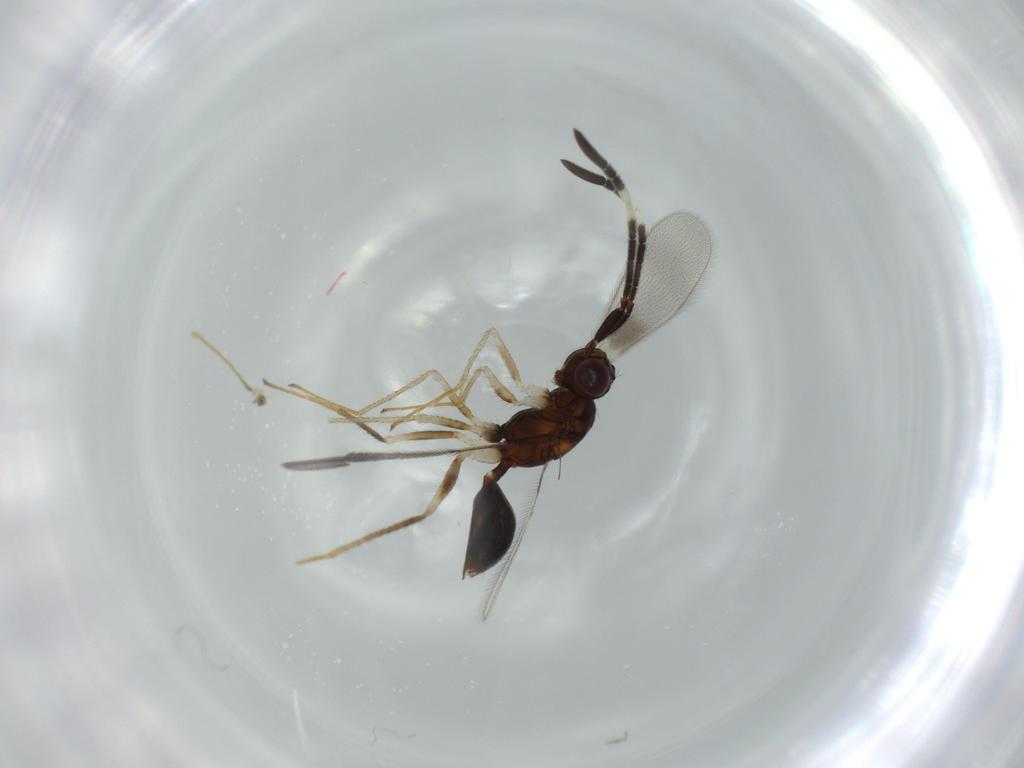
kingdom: Animalia
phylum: Arthropoda
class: Insecta
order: Hymenoptera
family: Mymaridae
